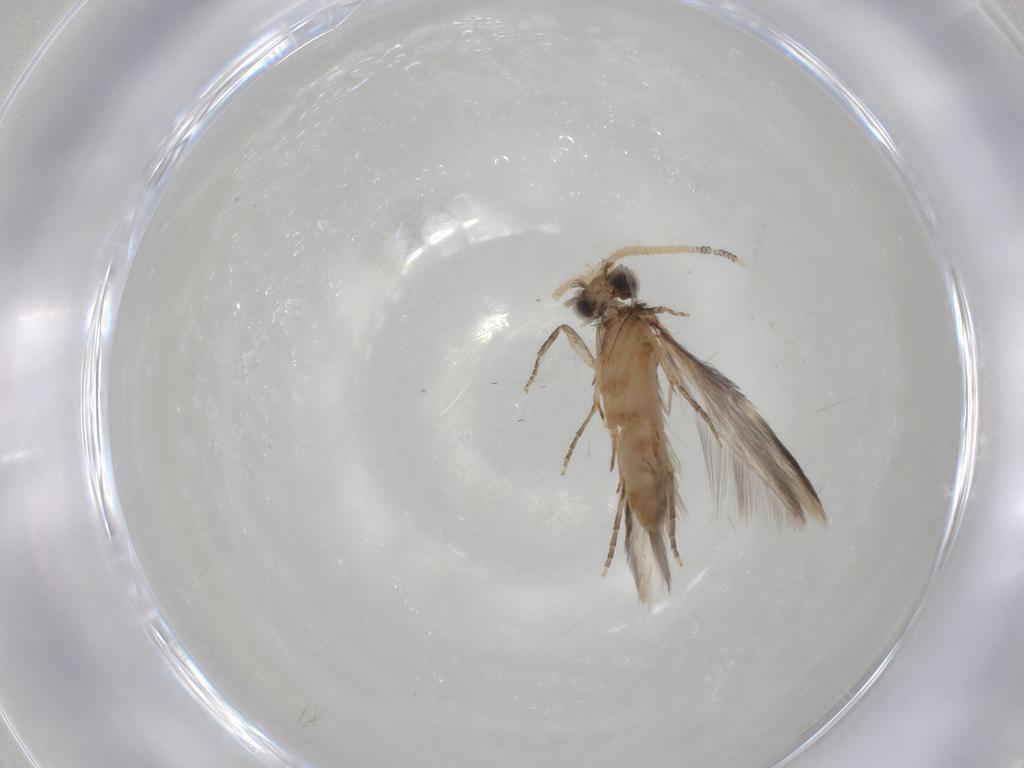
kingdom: Animalia
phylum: Arthropoda
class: Insecta
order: Trichoptera
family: Hydroptilidae
